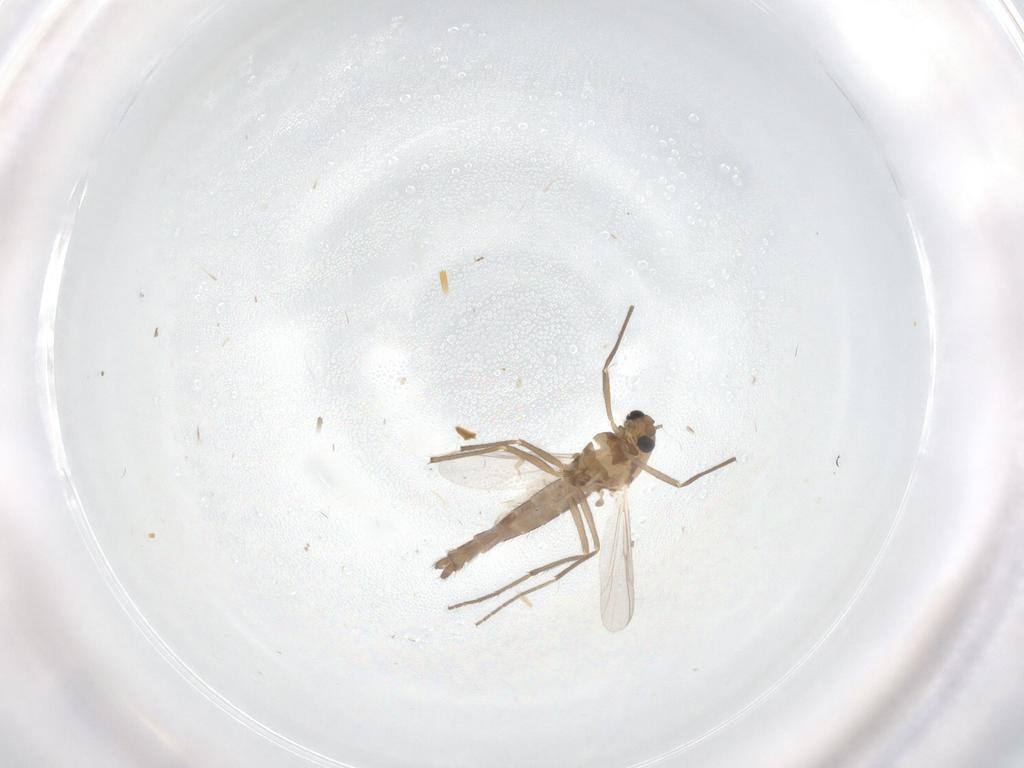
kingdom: Animalia
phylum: Arthropoda
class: Insecta
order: Diptera
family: Chironomidae
